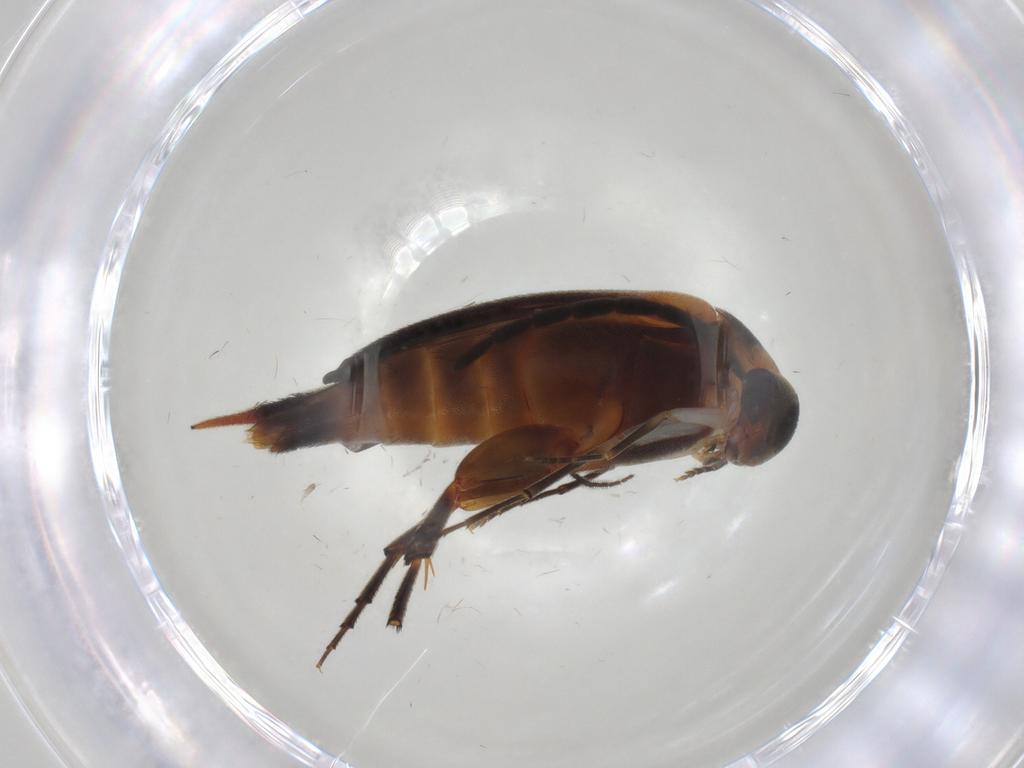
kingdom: Animalia
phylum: Arthropoda
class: Insecta
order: Coleoptera
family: Mordellidae
